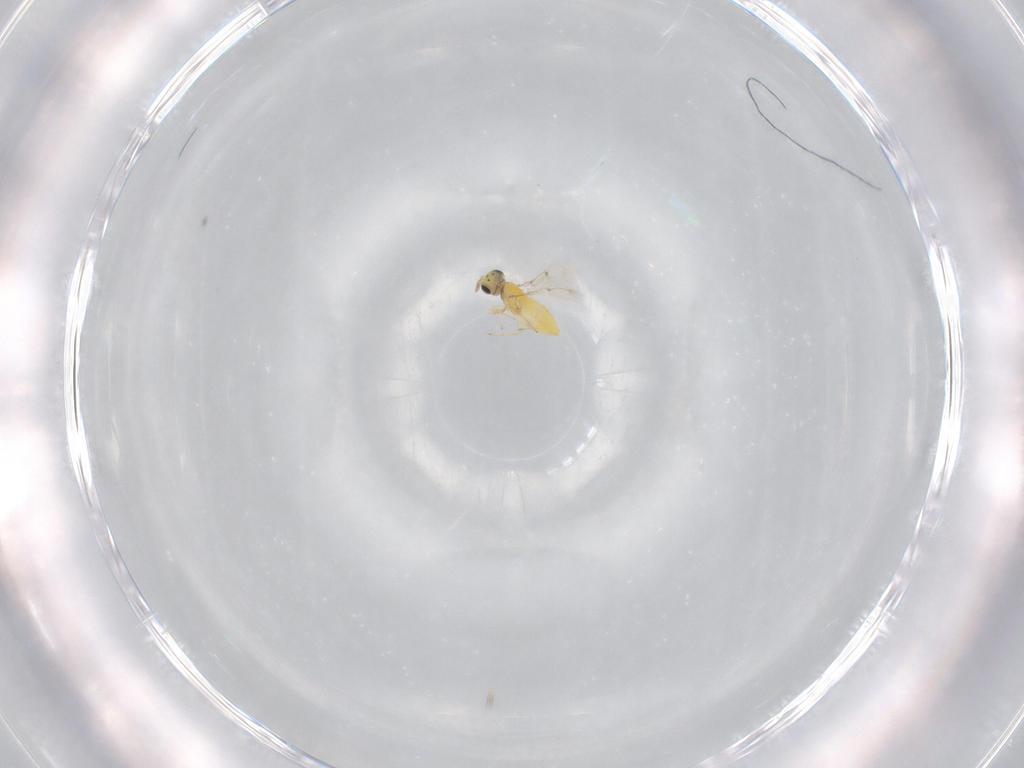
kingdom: Animalia
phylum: Arthropoda
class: Insecta
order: Hymenoptera
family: Trichogrammatidae
